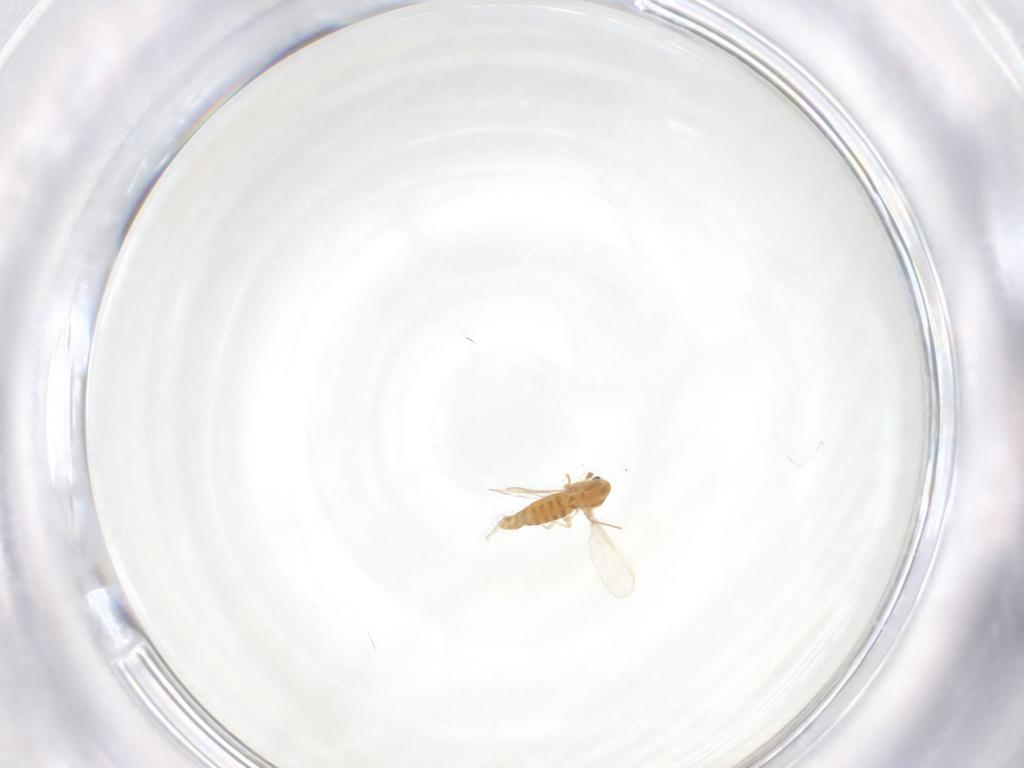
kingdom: Animalia
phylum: Arthropoda
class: Insecta
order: Diptera
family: Chironomidae
